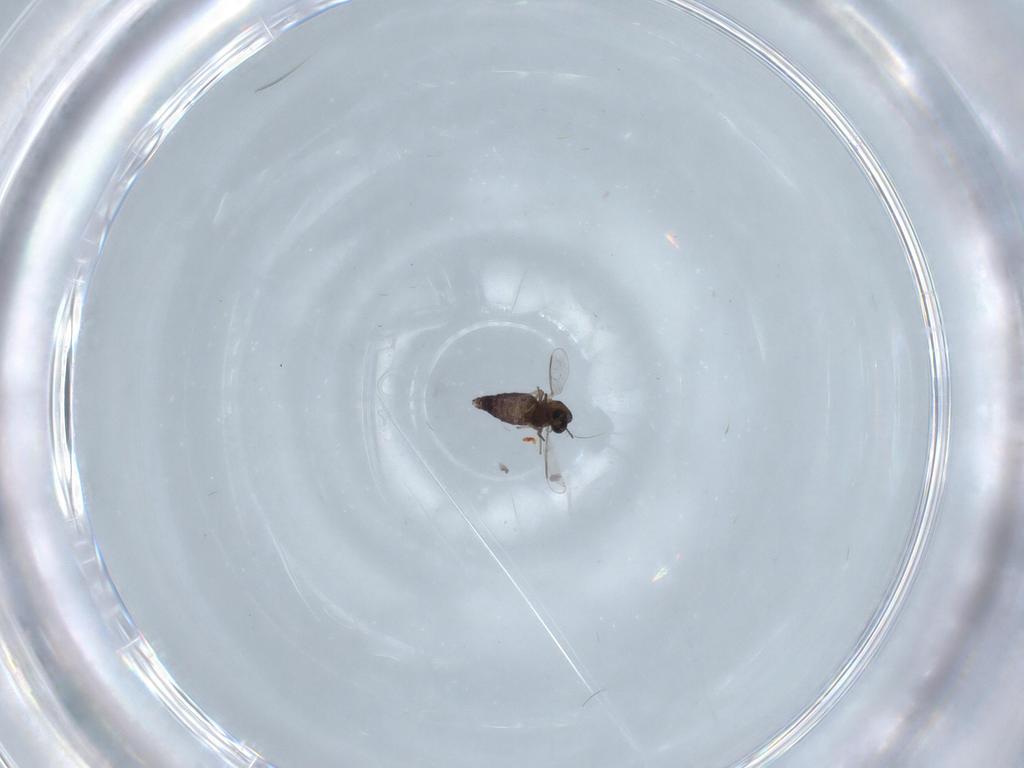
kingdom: Animalia
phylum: Arthropoda
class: Insecta
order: Diptera
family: Chironomidae
